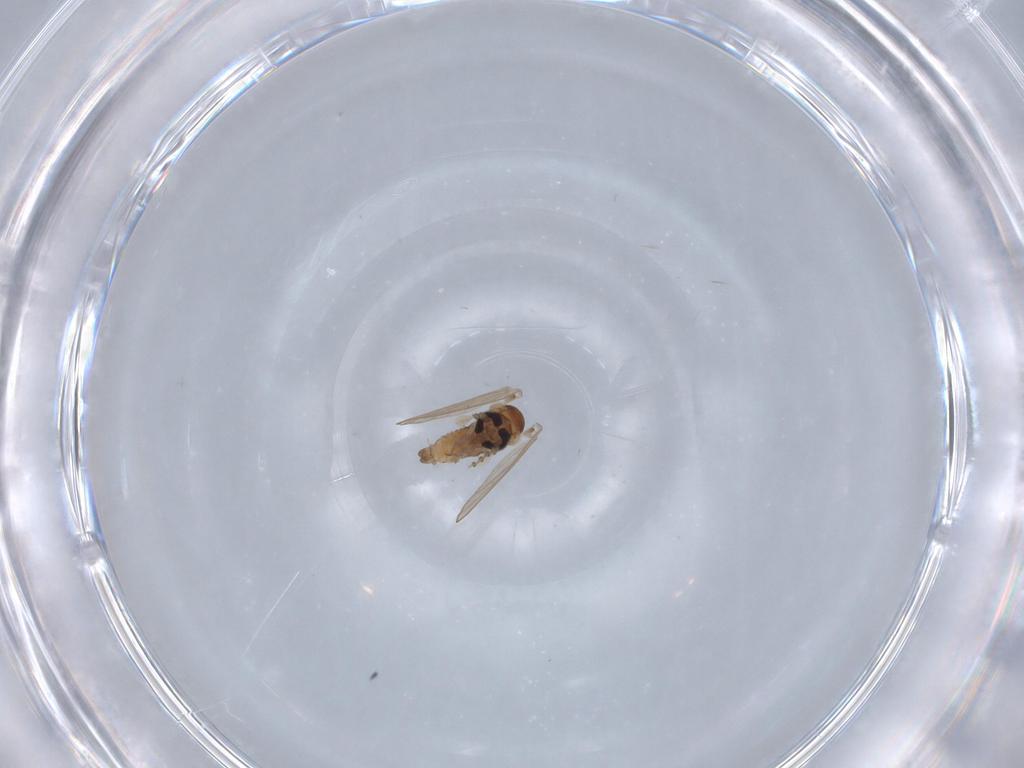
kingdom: Animalia
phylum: Arthropoda
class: Insecta
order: Diptera
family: Psychodidae
